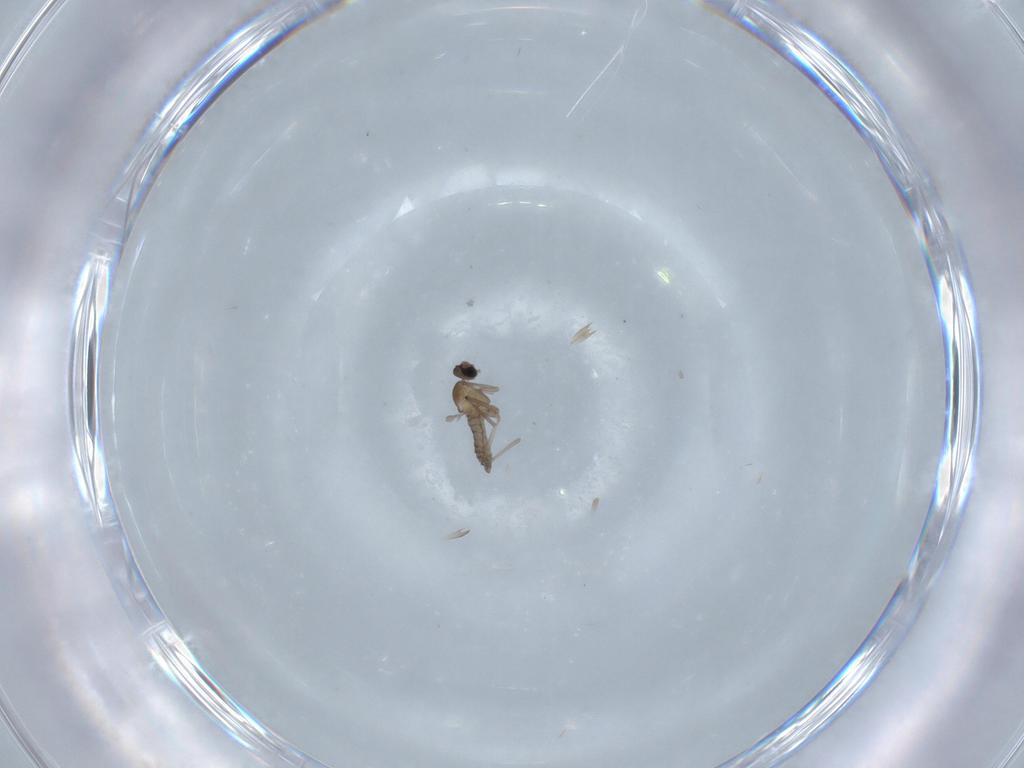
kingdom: Animalia
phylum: Arthropoda
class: Insecta
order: Diptera
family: Cecidomyiidae
